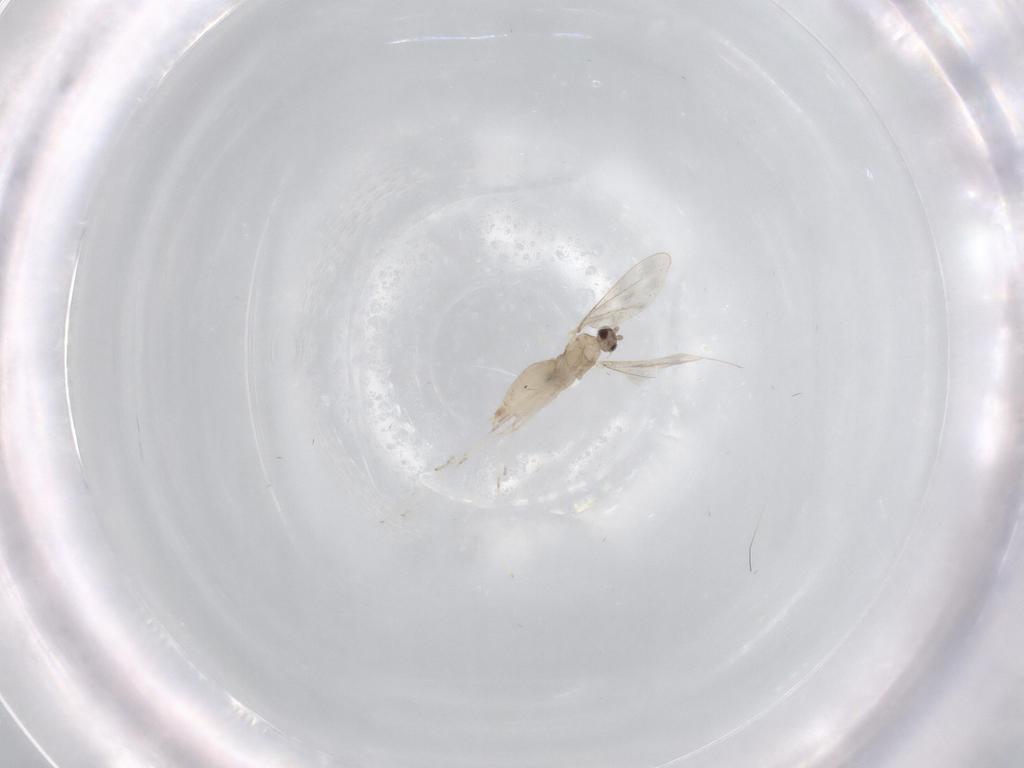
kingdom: Animalia
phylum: Arthropoda
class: Insecta
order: Diptera
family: Cecidomyiidae
